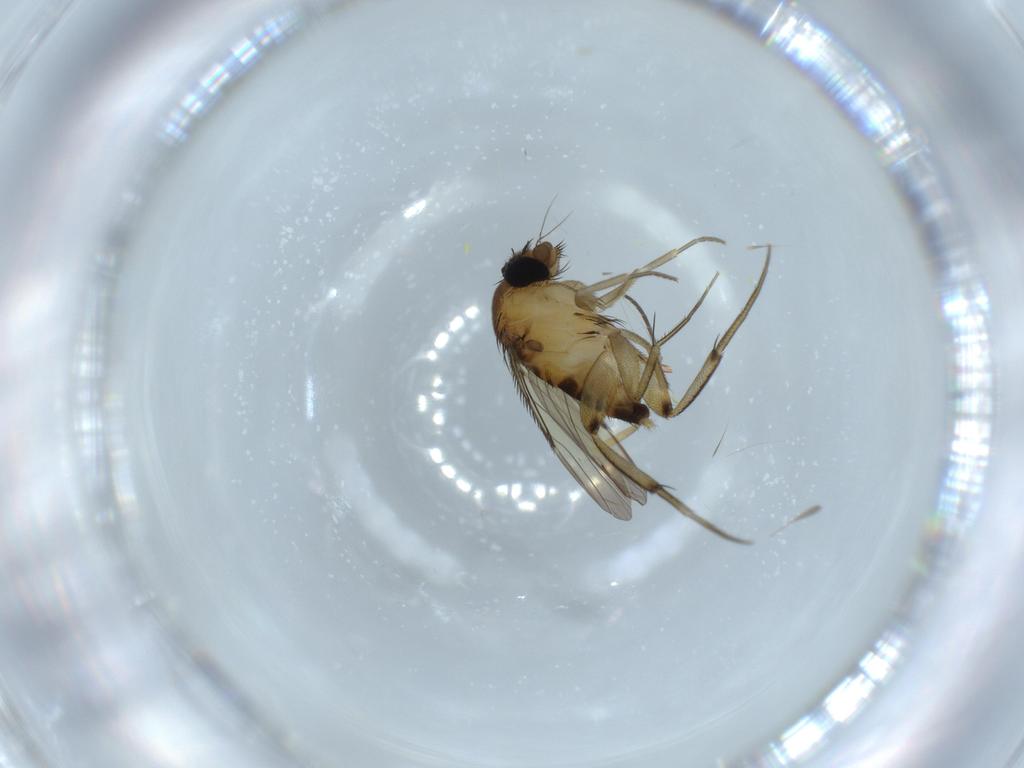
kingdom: Animalia
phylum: Arthropoda
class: Insecta
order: Diptera
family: Phoridae
